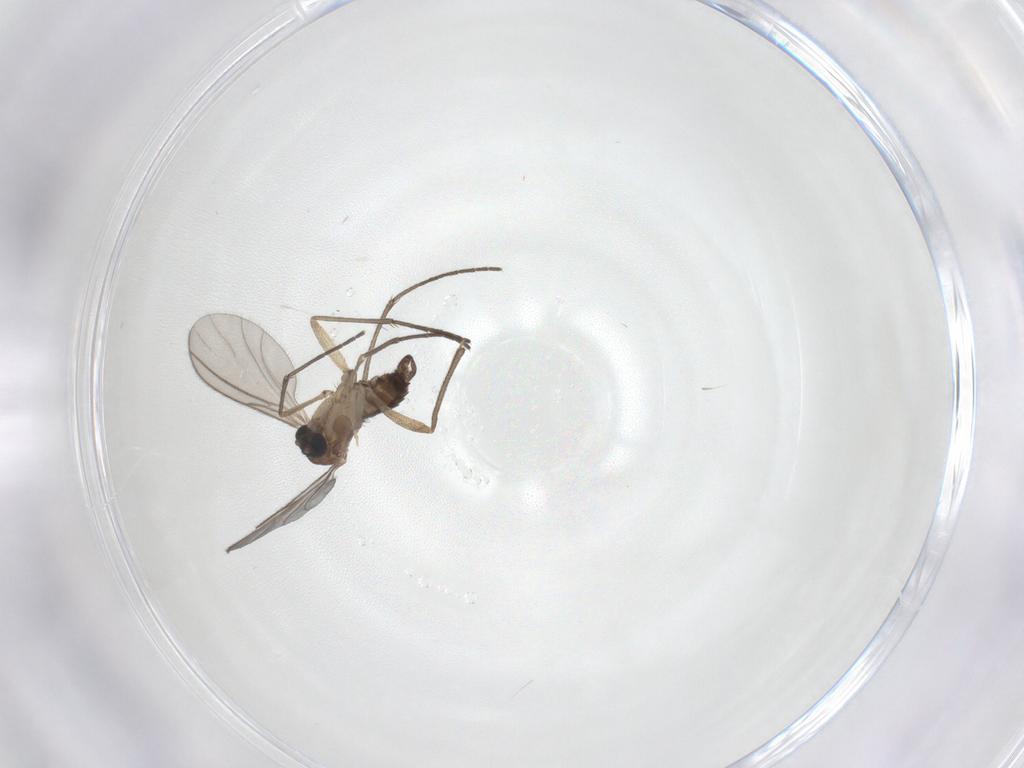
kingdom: Animalia
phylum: Arthropoda
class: Insecta
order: Diptera
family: Sciaridae
